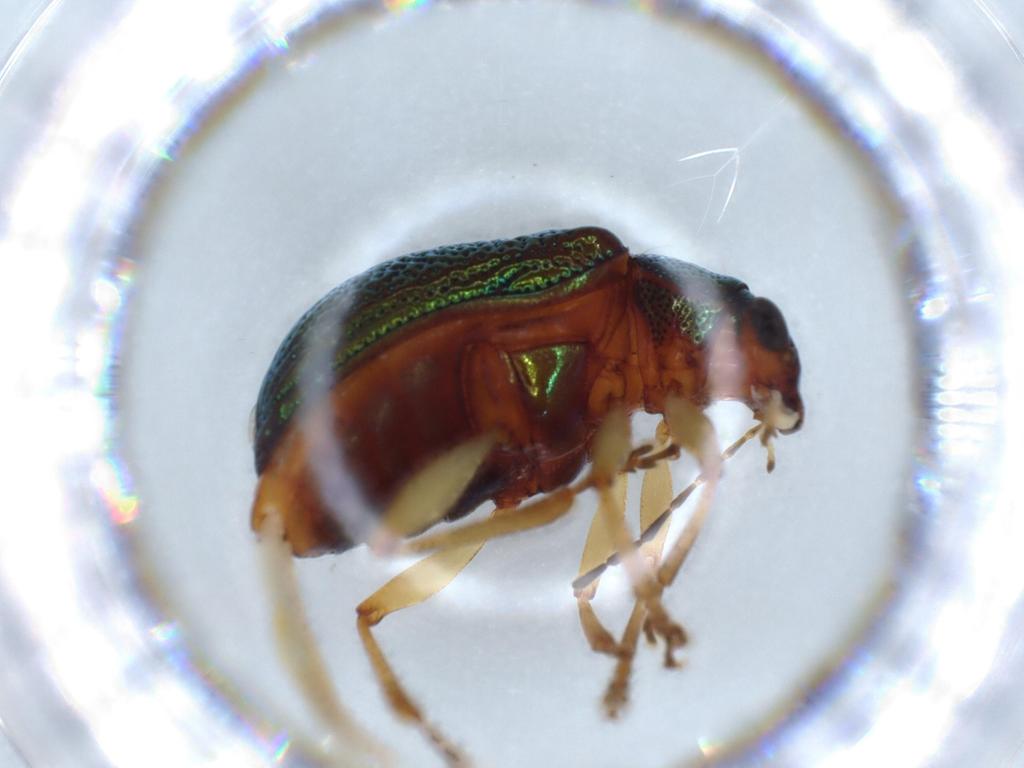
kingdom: Animalia
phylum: Arthropoda
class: Insecta
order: Coleoptera
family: Chrysomelidae
